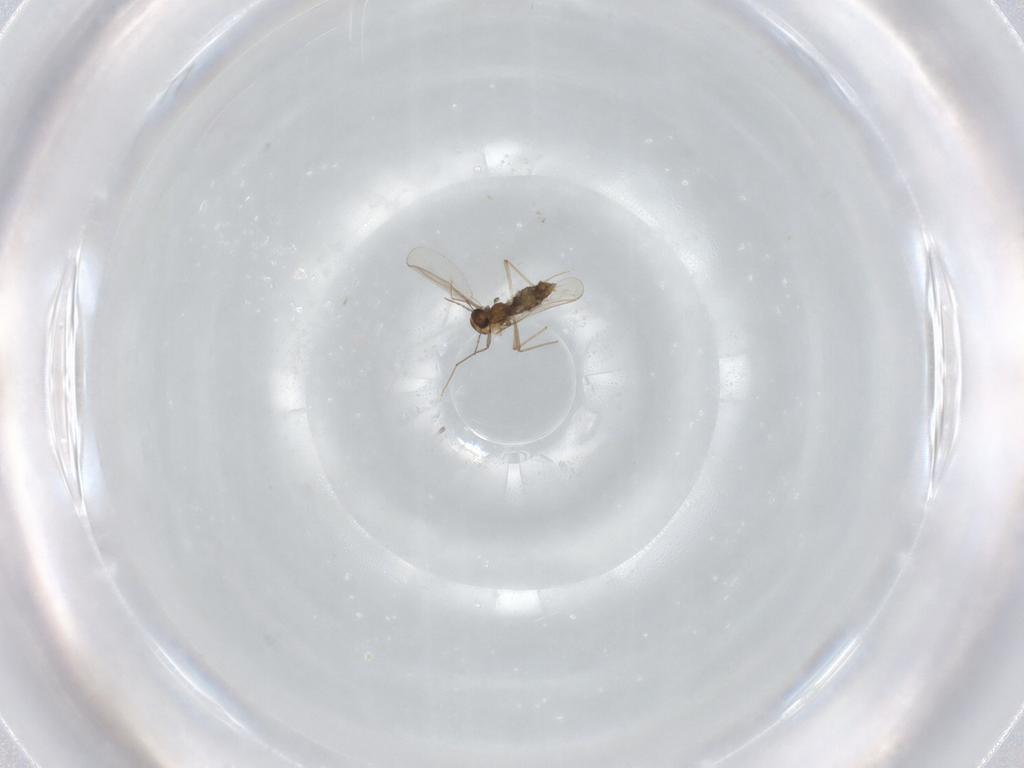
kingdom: Animalia
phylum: Arthropoda
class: Insecta
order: Diptera
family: Chironomidae
